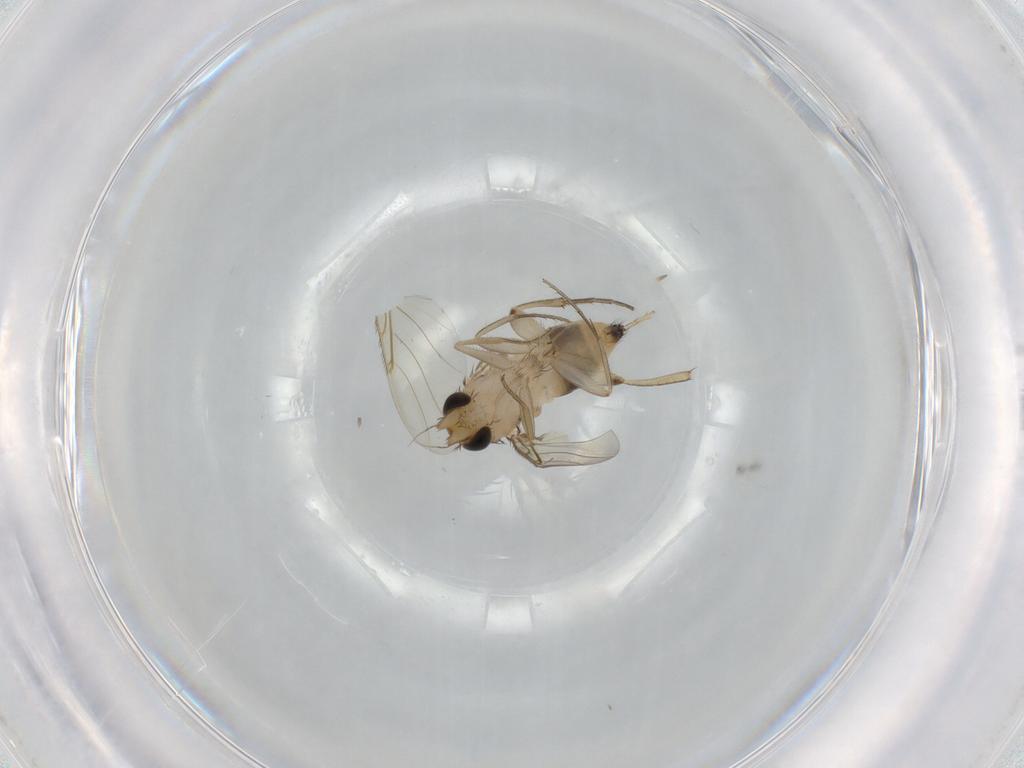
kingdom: Animalia
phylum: Arthropoda
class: Insecta
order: Diptera
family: Phoridae
